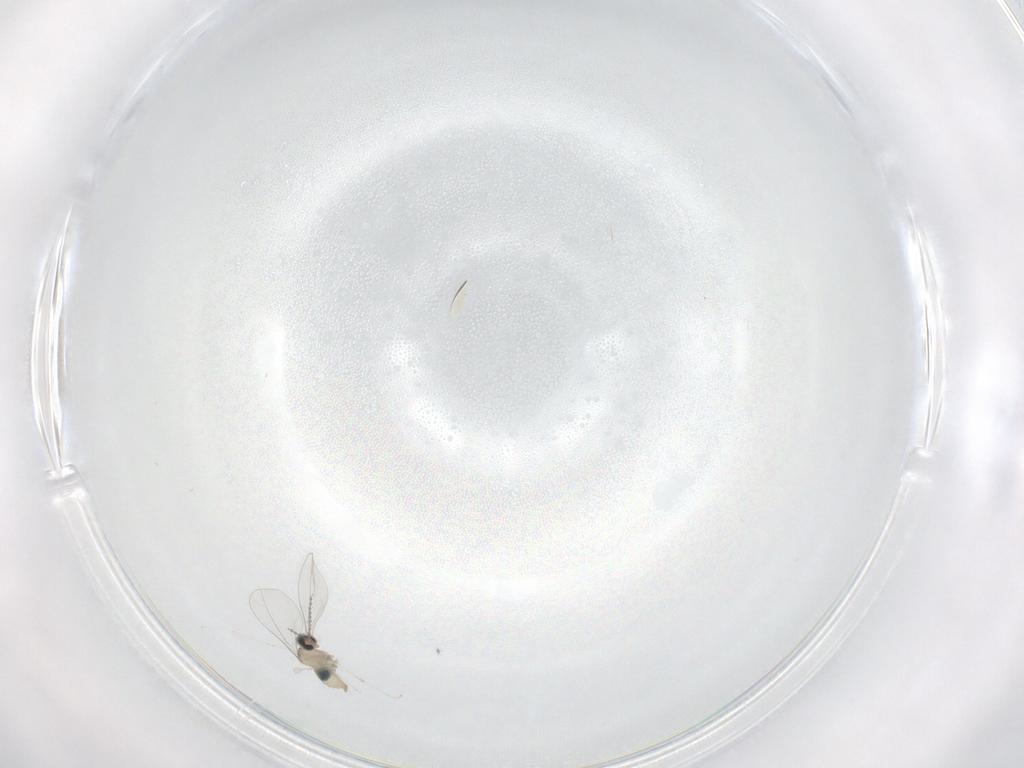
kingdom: Animalia
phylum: Arthropoda
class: Insecta
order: Diptera
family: Cecidomyiidae
